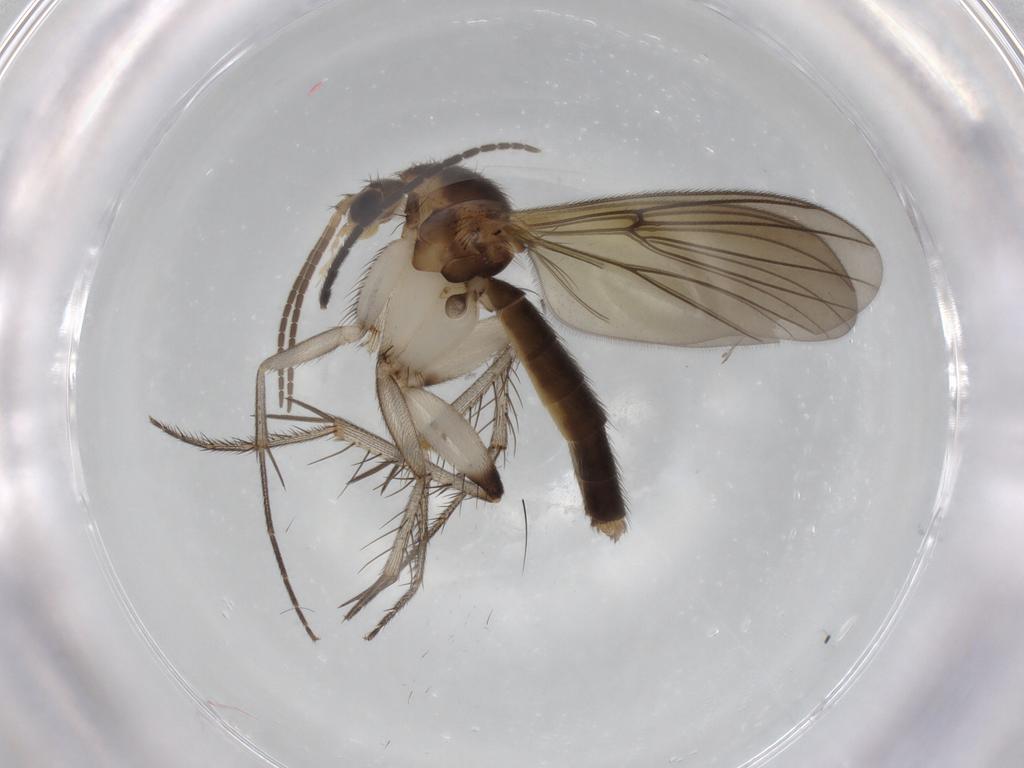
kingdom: Animalia
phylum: Arthropoda
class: Insecta
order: Diptera
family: Mycetophilidae
